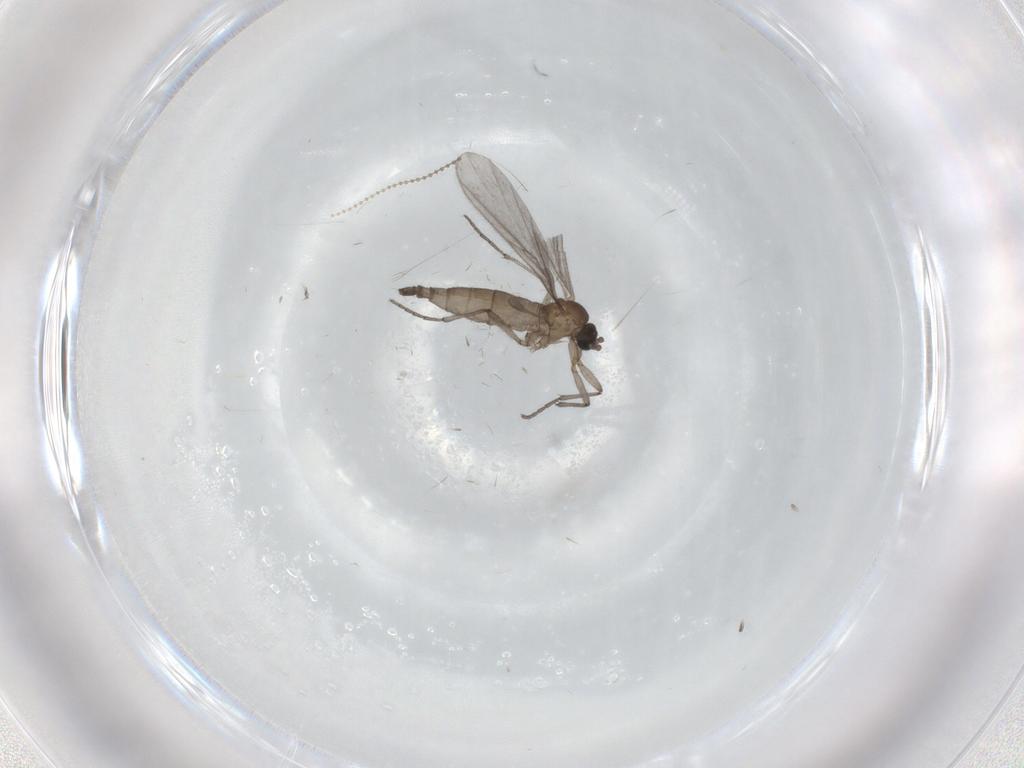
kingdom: Animalia
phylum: Arthropoda
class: Insecta
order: Diptera
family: Sciaridae
